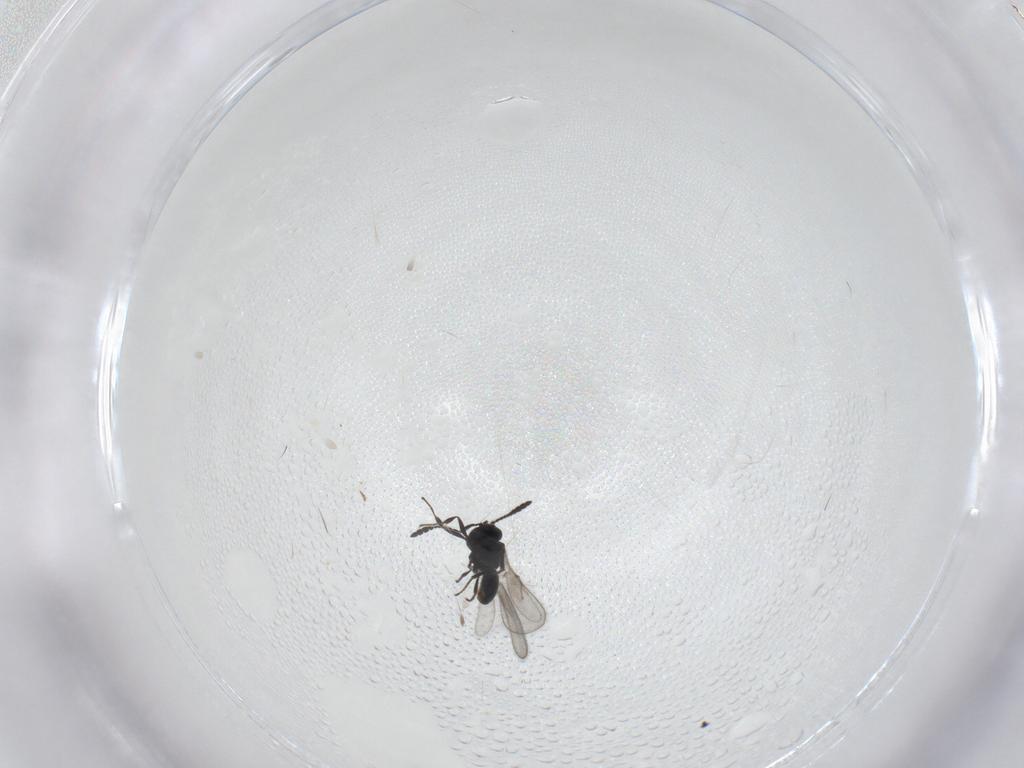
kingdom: Animalia
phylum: Arthropoda
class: Insecta
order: Hymenoptera
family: Scelionidae
